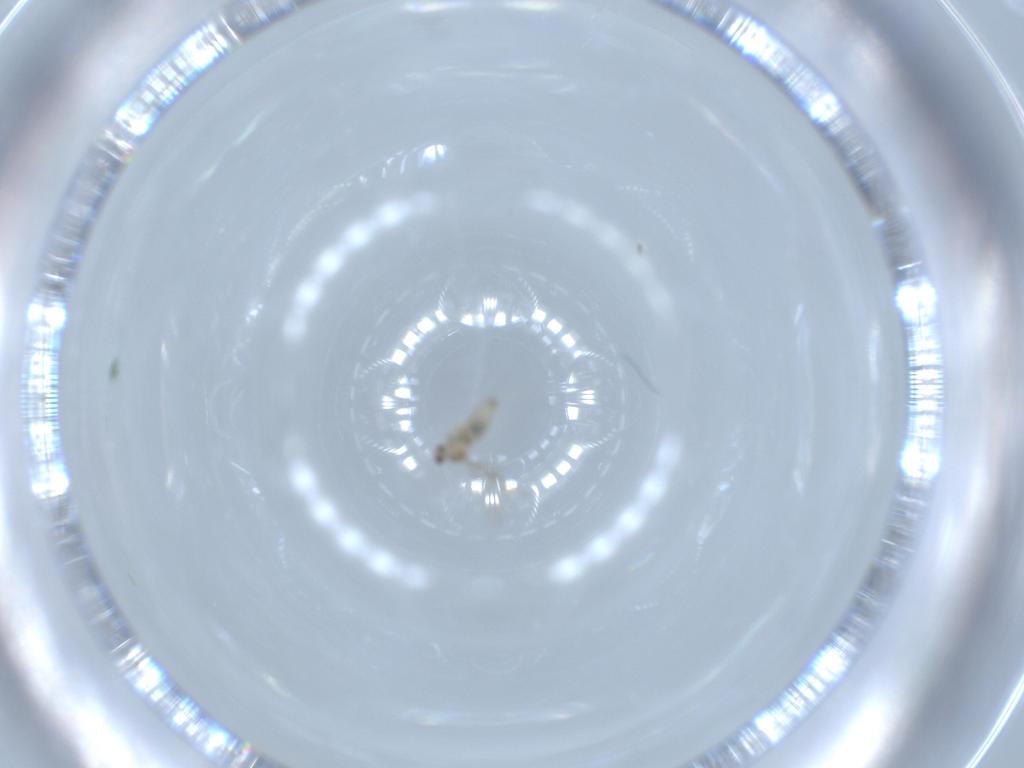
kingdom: Animalia
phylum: Arthropoda
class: Insecta
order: Diptera
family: Cecidomyiidae
